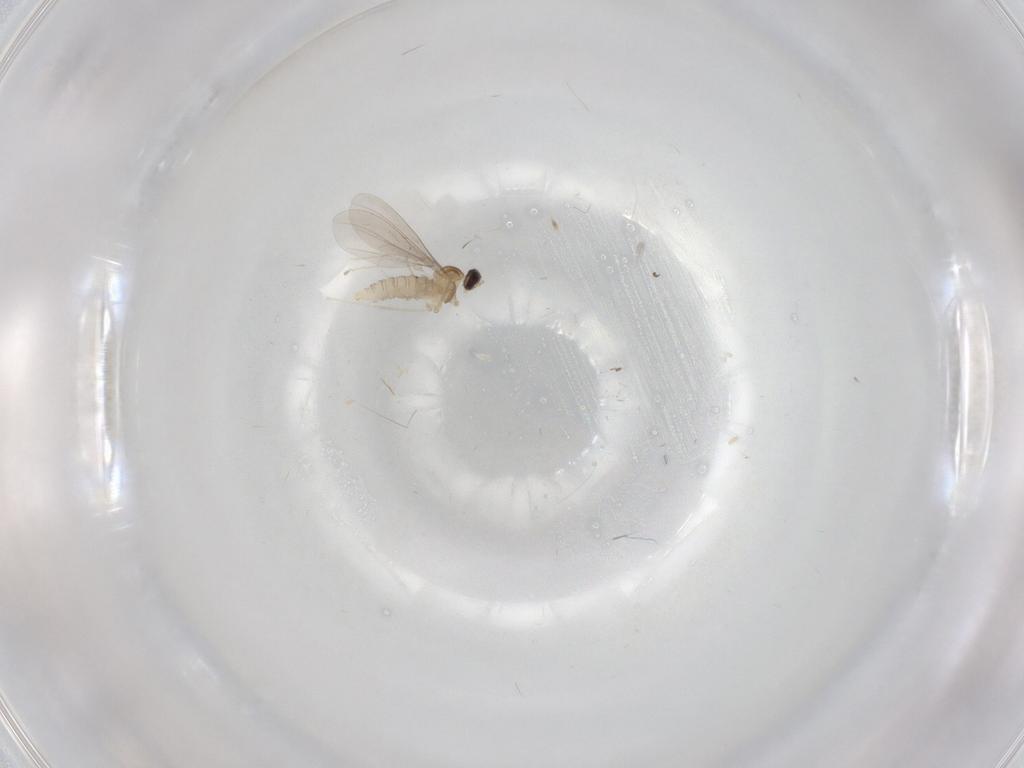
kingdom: Animalia
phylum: Arthropoda
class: Insecta
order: Diptera
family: Cecidomyiidae
